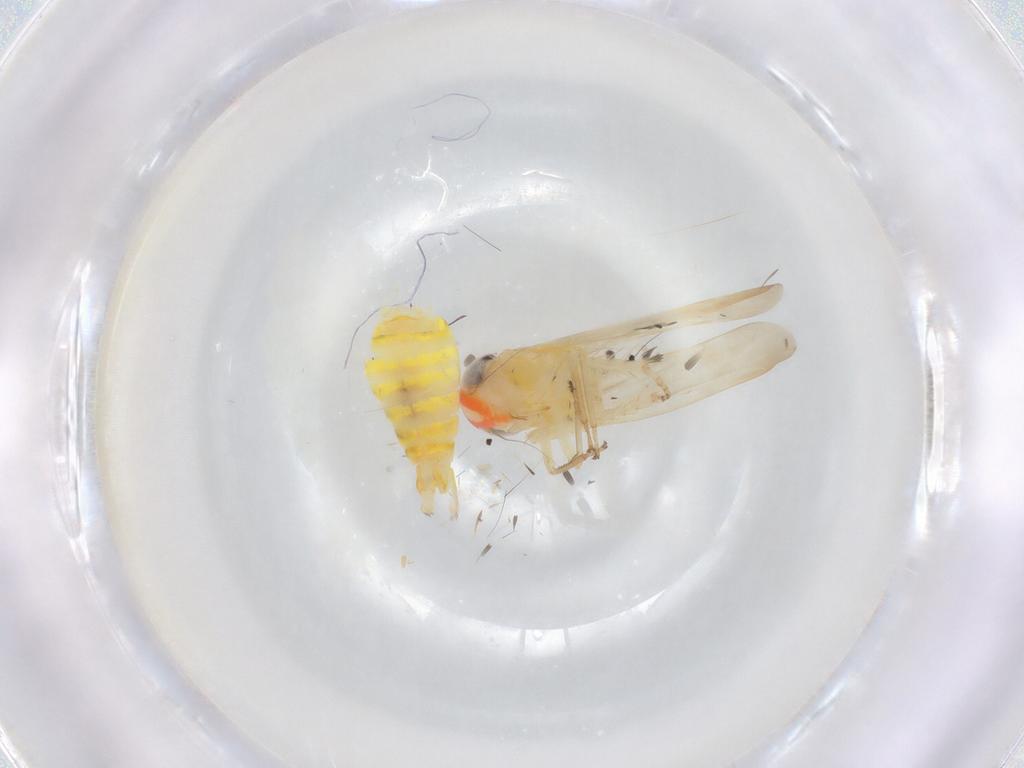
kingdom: Animalia
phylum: Arthropoda
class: Insecta
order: Hemiptera
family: Cicadellidae
